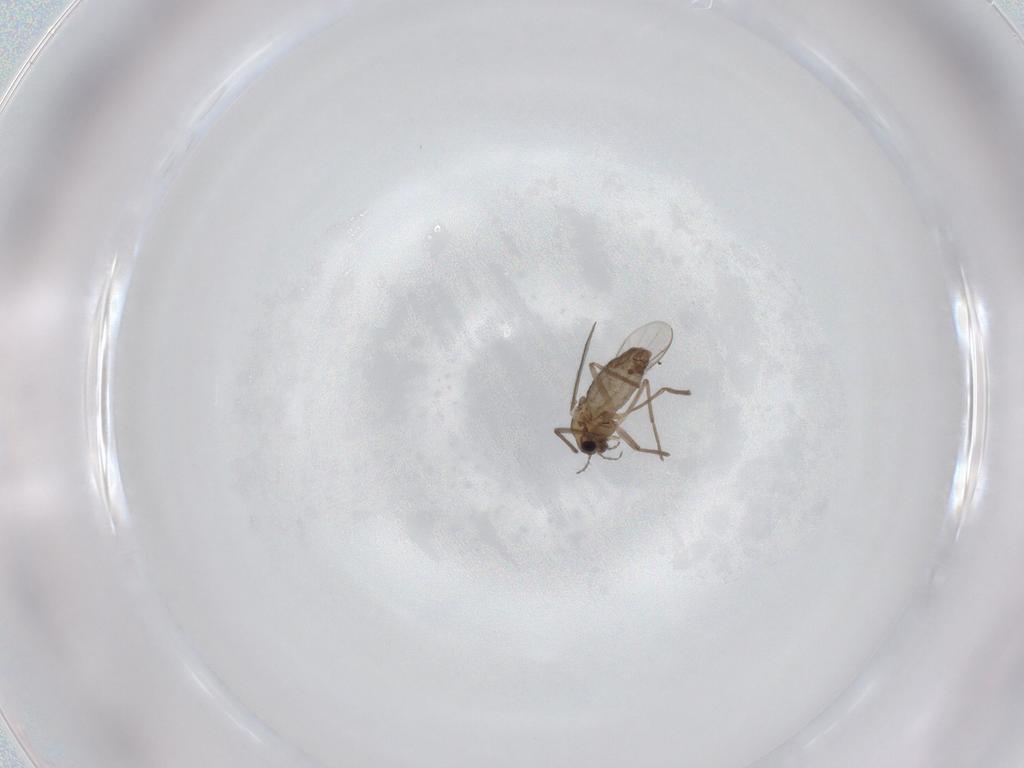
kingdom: Animalia
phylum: Arthropoda
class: Insecta
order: Diptera
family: Chironomidae
